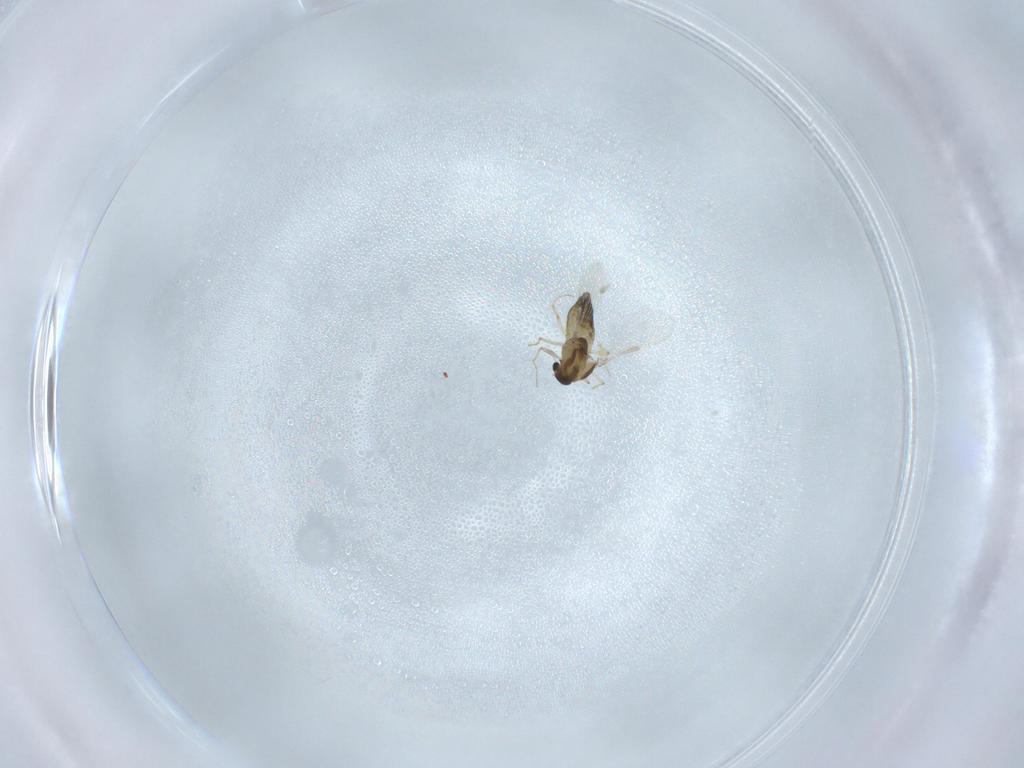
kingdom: Animalia
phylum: Arthropoda
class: Insecta
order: Diptera
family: Chironomidae
